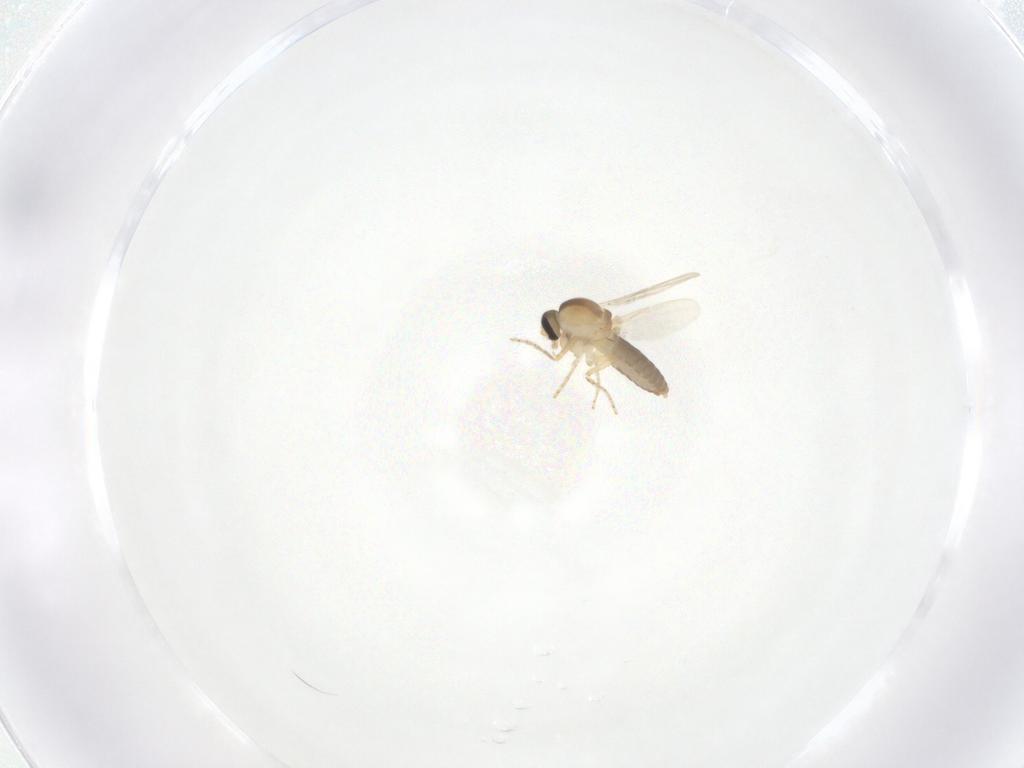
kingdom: Animalia
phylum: Arthropoda
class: Insecta
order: Diptera
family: Ceratopogonidae
